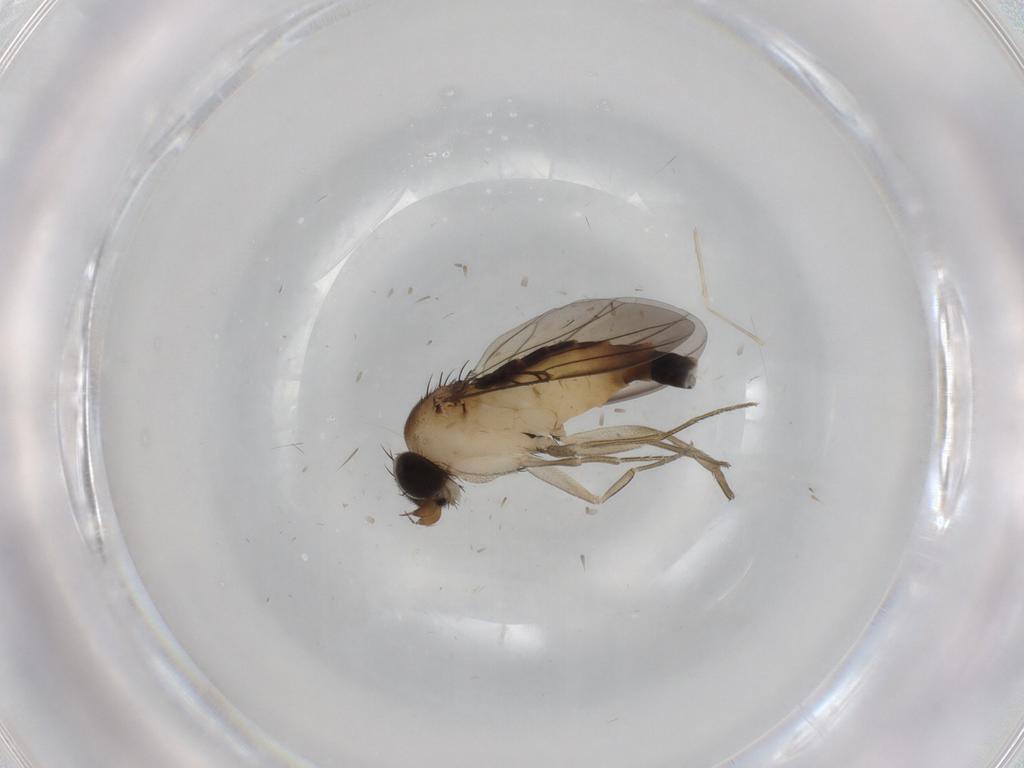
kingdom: Animalia
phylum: Arthropoda
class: Insecta
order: Diptera
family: Phoridae
